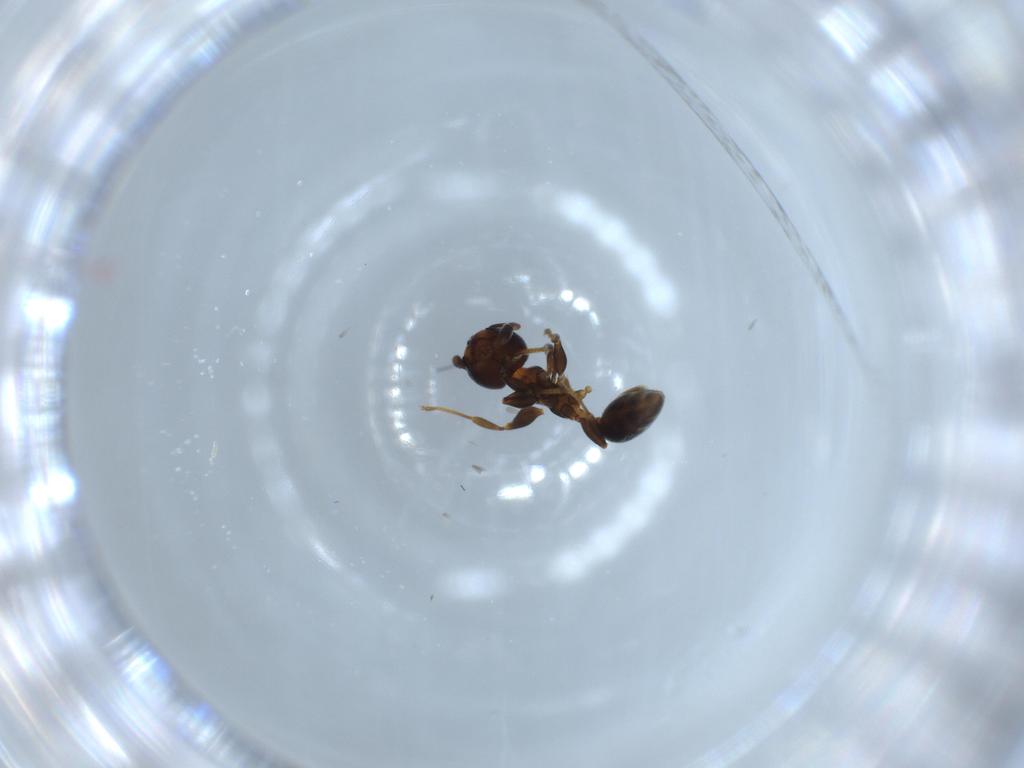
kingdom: Animalia
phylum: Arthropoda
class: Insecta
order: Hymenoptera
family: Formicidae
